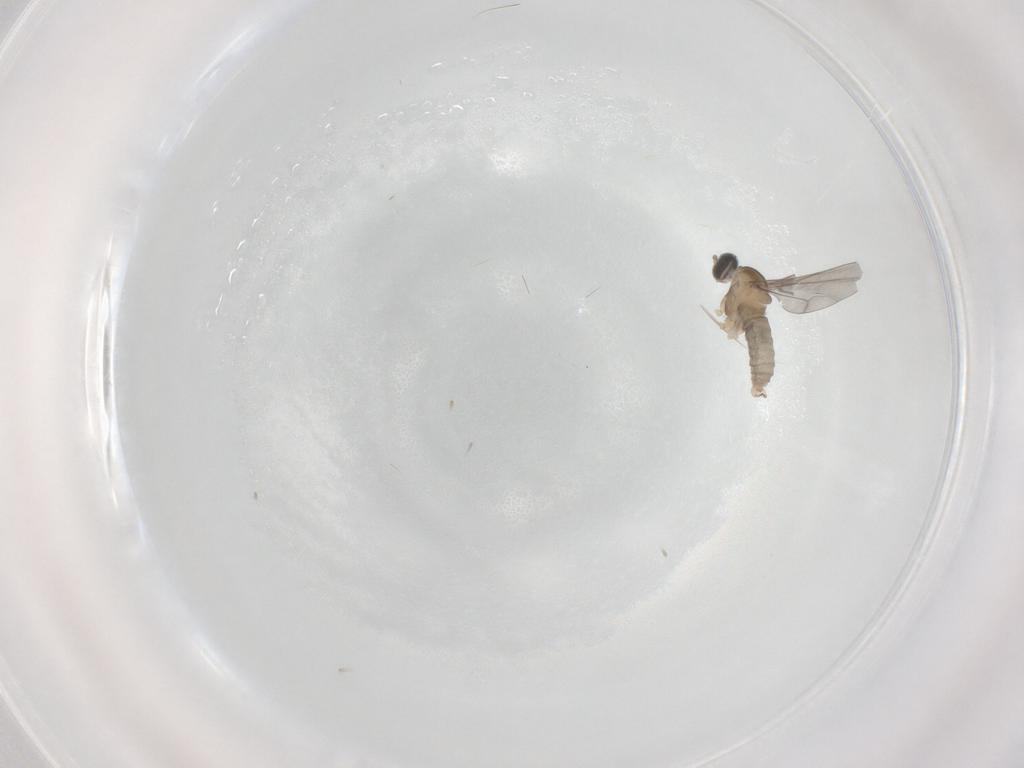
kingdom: Animalia
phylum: Arthropoda
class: Insecta
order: Diptera
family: Cecidomyiidae
